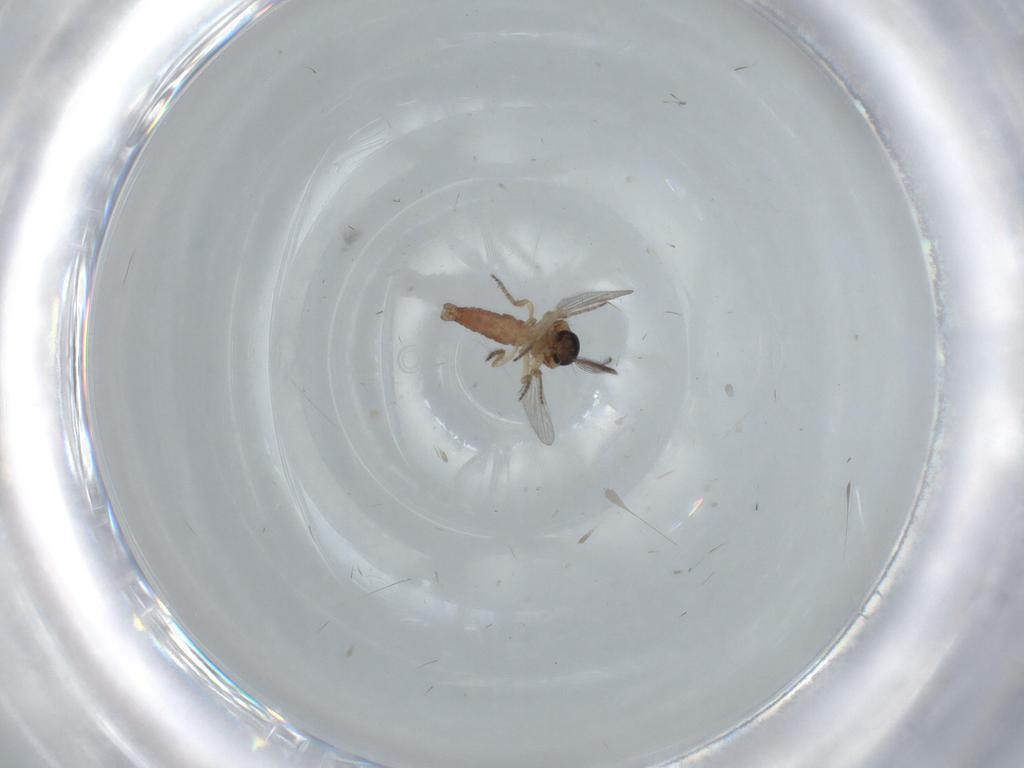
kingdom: Animalia
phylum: Arthropoda
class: Insecta
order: Diptera
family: Ceratopogonidae
